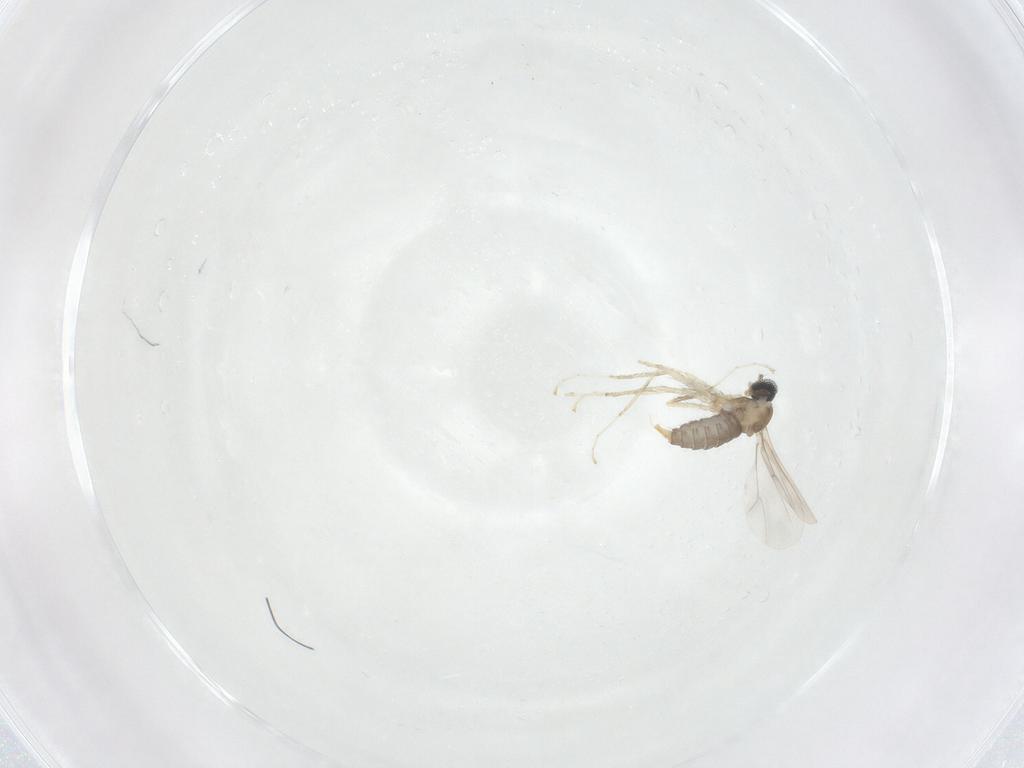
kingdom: Animalia
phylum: Arthropoda
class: Insecta
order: Diptera
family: Cecidomyiidae
